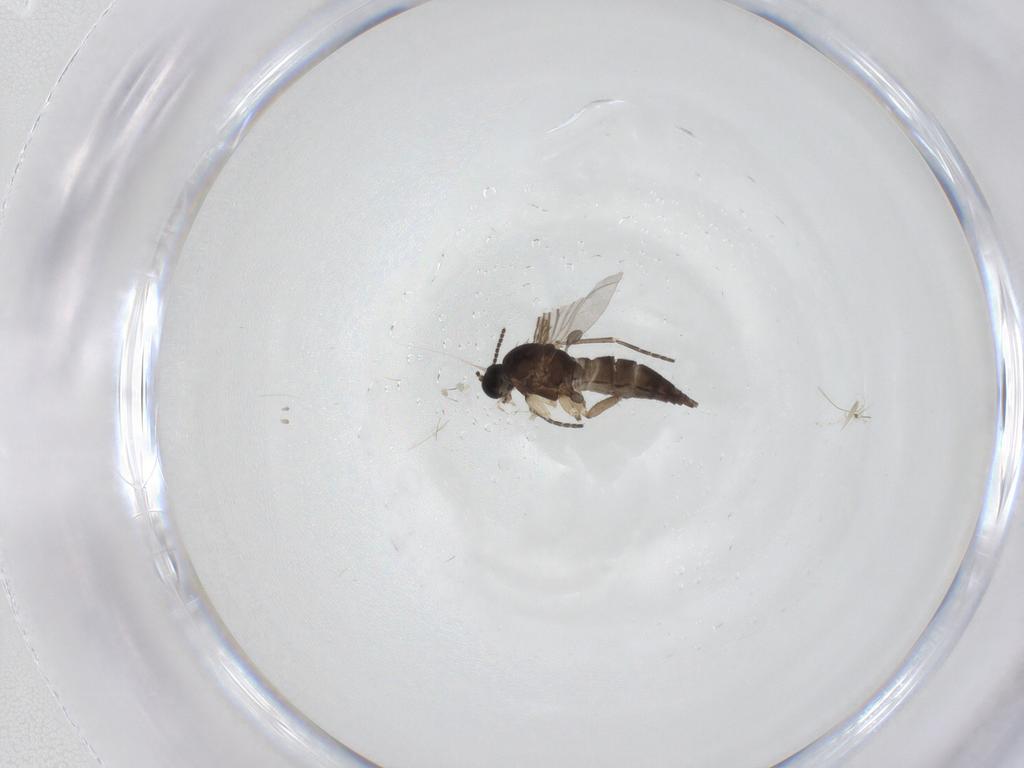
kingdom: Animalia
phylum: Arthropoda
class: Insecta
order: Diptera
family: Sciaridae
